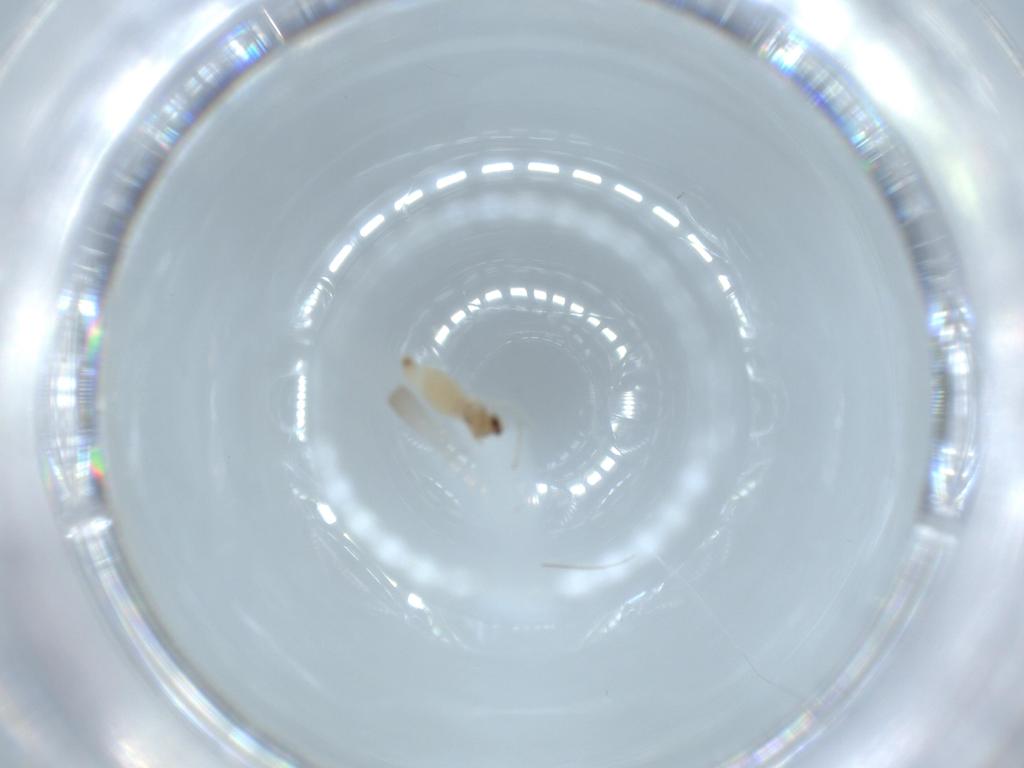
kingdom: Animalia
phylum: Arthropoda
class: Insecta
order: Diptera
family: Cecidomyiidae
